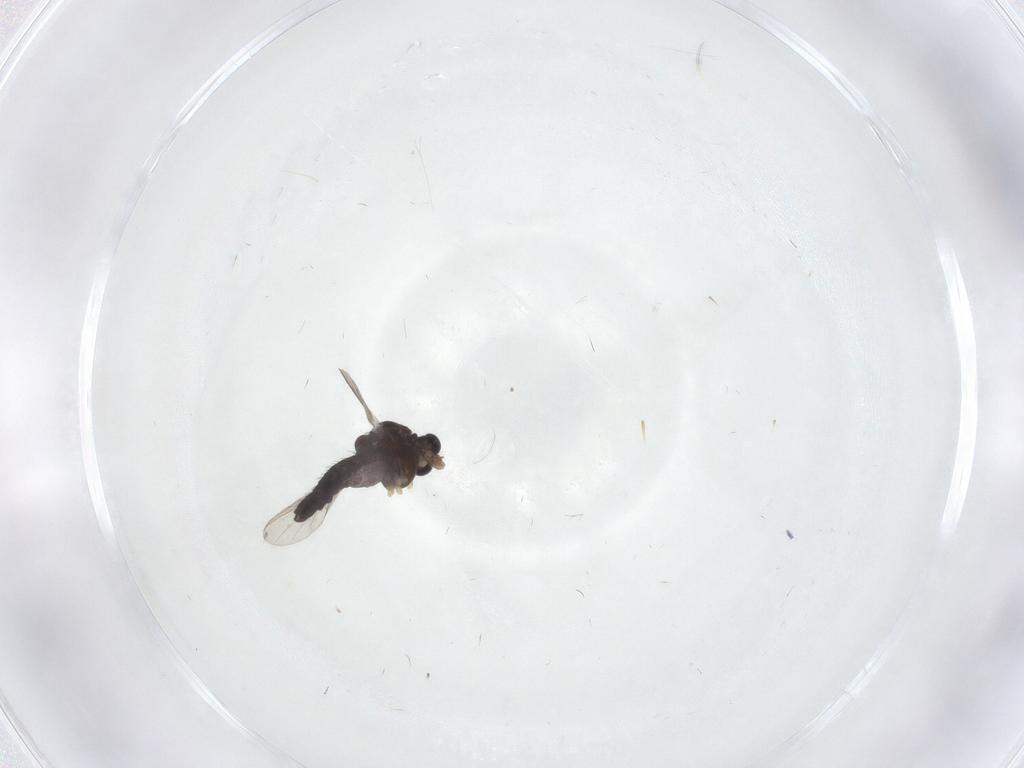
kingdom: Animalia
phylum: Arthropoda
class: Insecta
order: Diptera
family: Chironomidae
